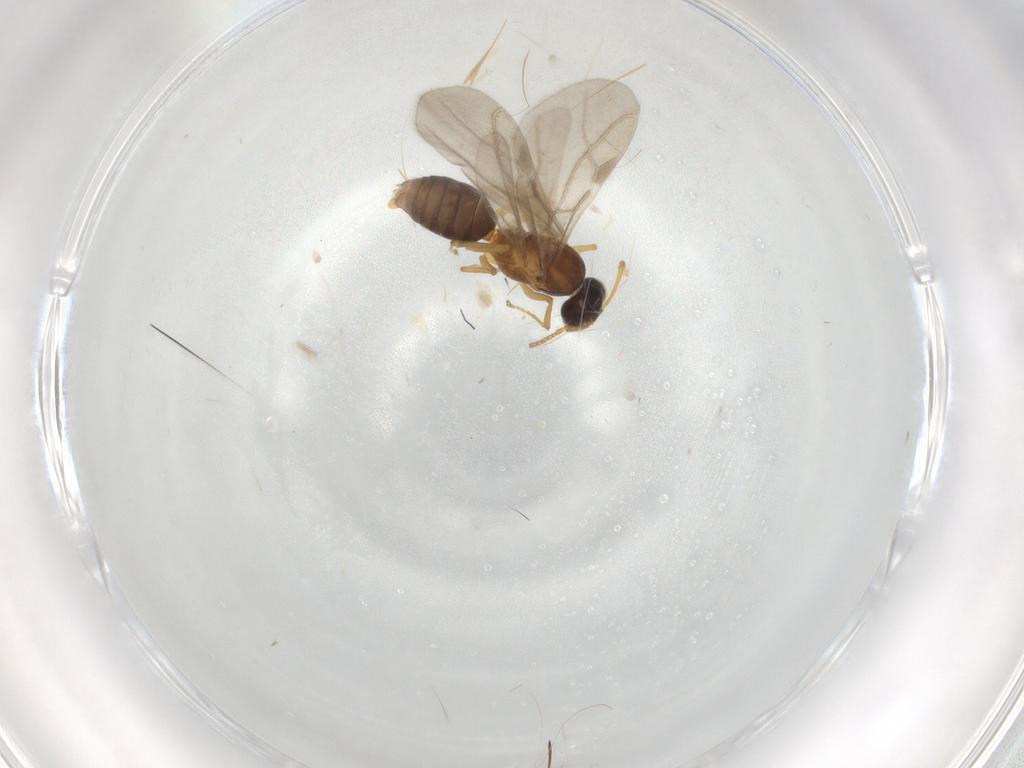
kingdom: Animalia
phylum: Arthropoda
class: Insecta
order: Hymenoptera
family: Formicidae
